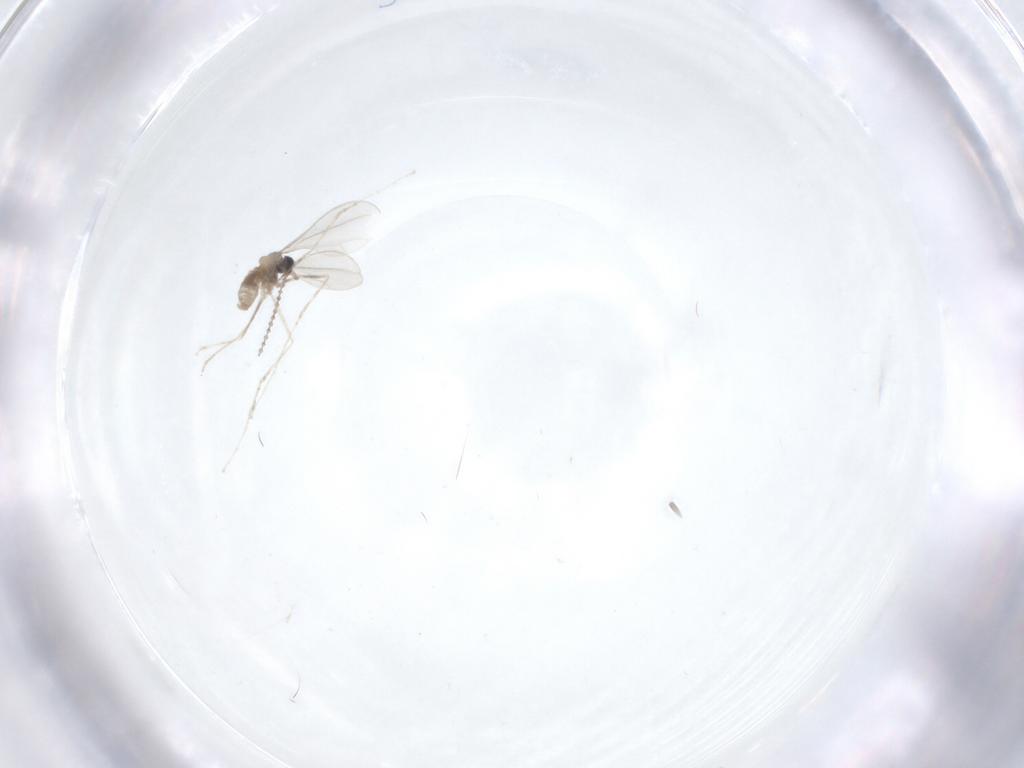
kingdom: Animalia
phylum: Arthropoda
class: Insecta
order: Diptera
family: Cecidomyiidae
